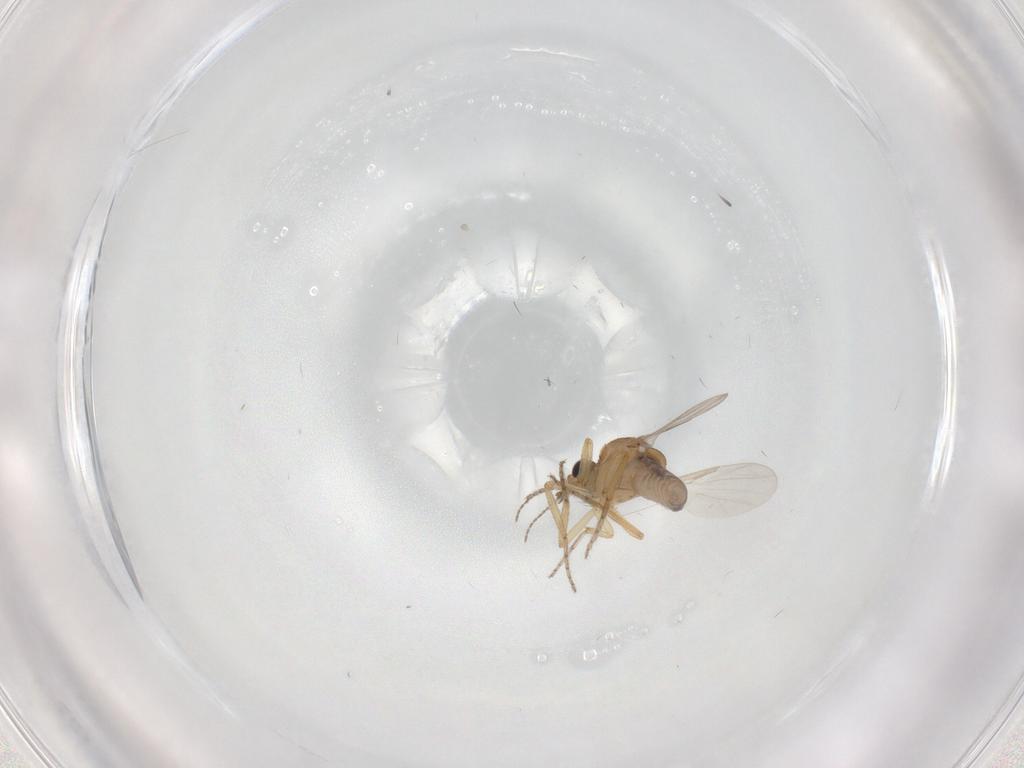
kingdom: Animalia
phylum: Arthropoda
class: Insecta
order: Diptera
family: Ceratopogonidae
